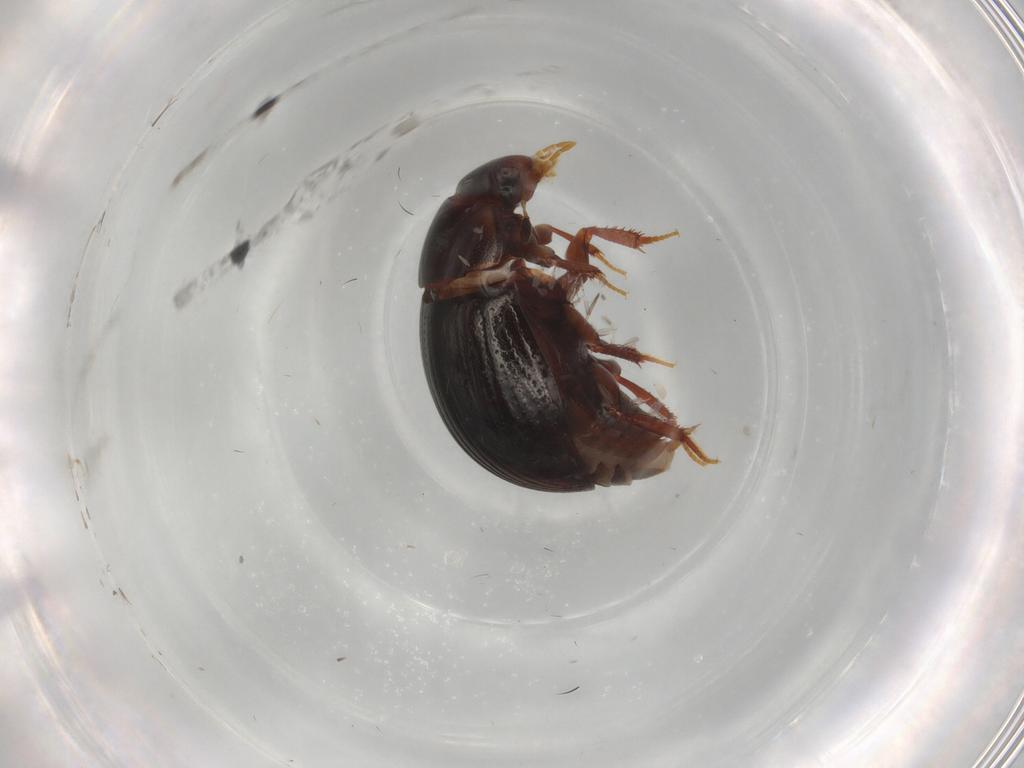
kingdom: Animalia
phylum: Arthropoda
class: Insecta
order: Coleoptera
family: Hydrophilidae
